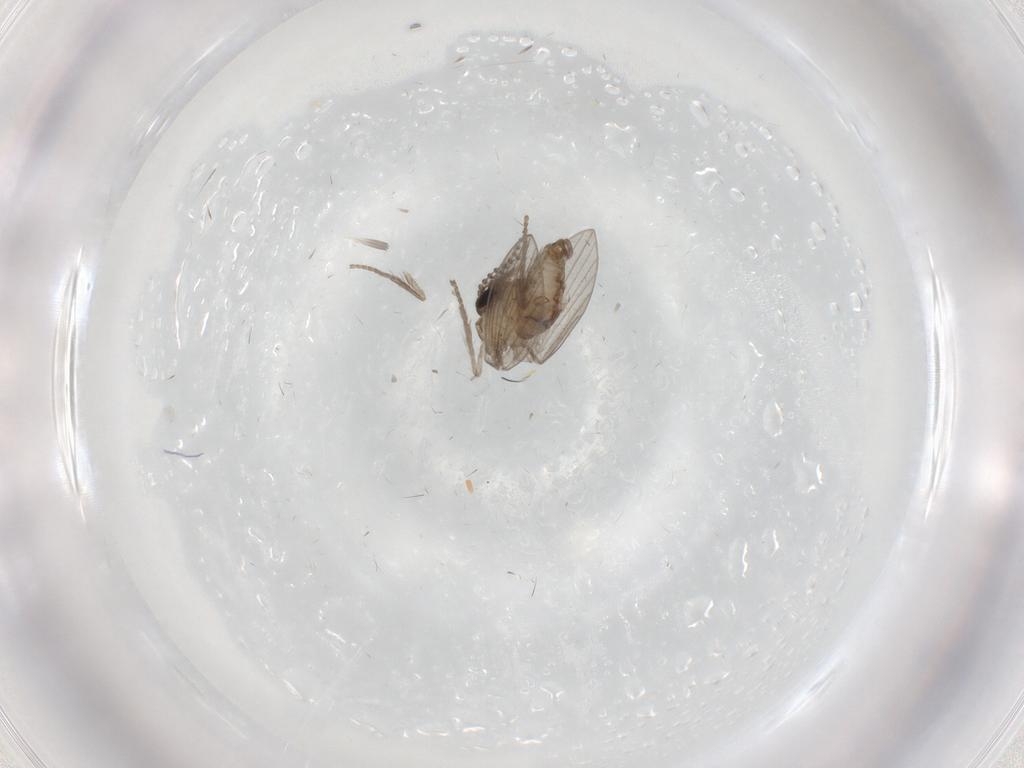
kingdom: Animalia
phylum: Arthropoda
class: Insecta
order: Diptera
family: Psychodidae
